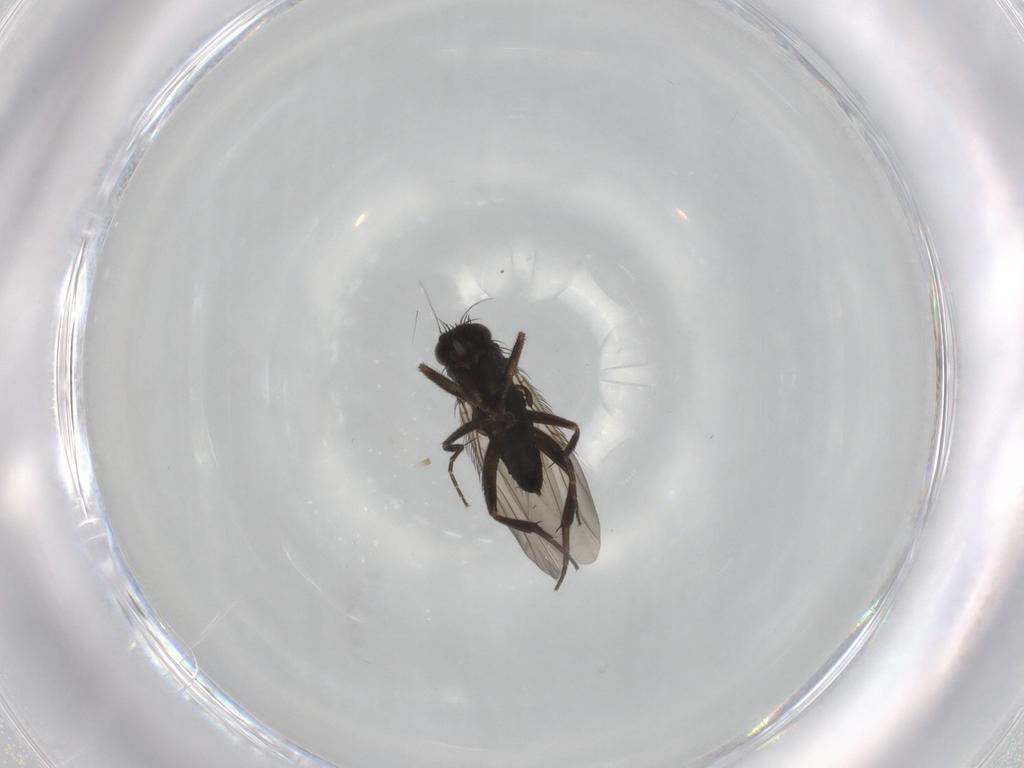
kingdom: Animalia
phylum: Arthropoda
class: Insecta
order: Diptera
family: Phoridae
